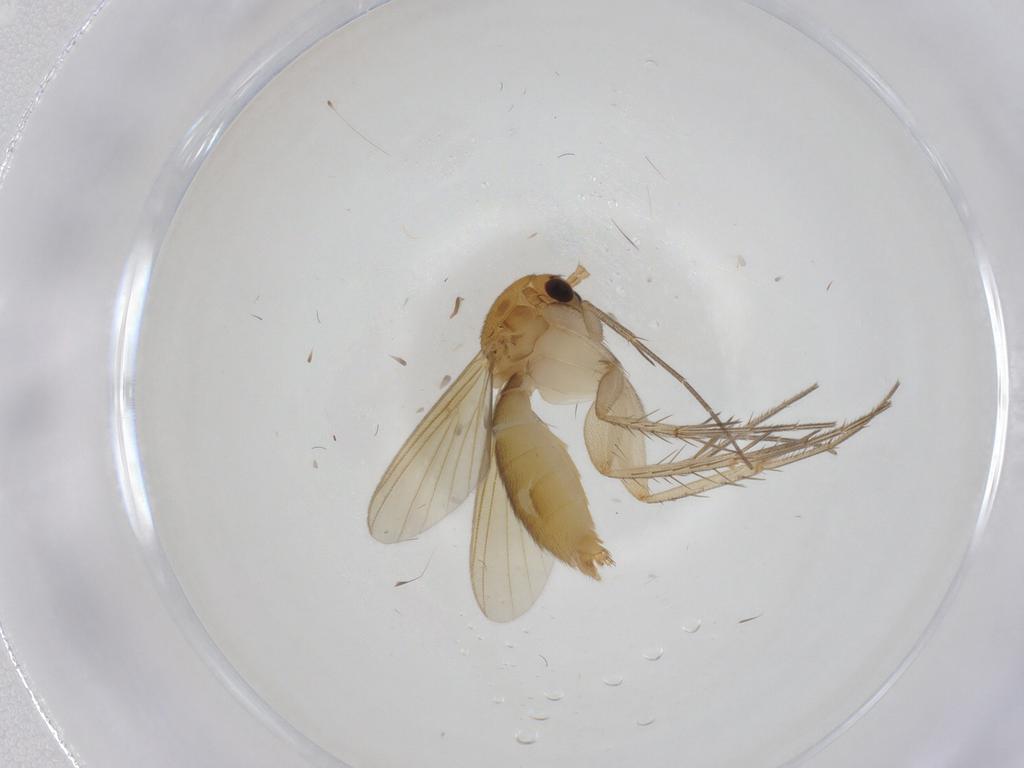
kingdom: Animalia
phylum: Arthropoda
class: Insecta
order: Diptera
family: Mycetophilidae
